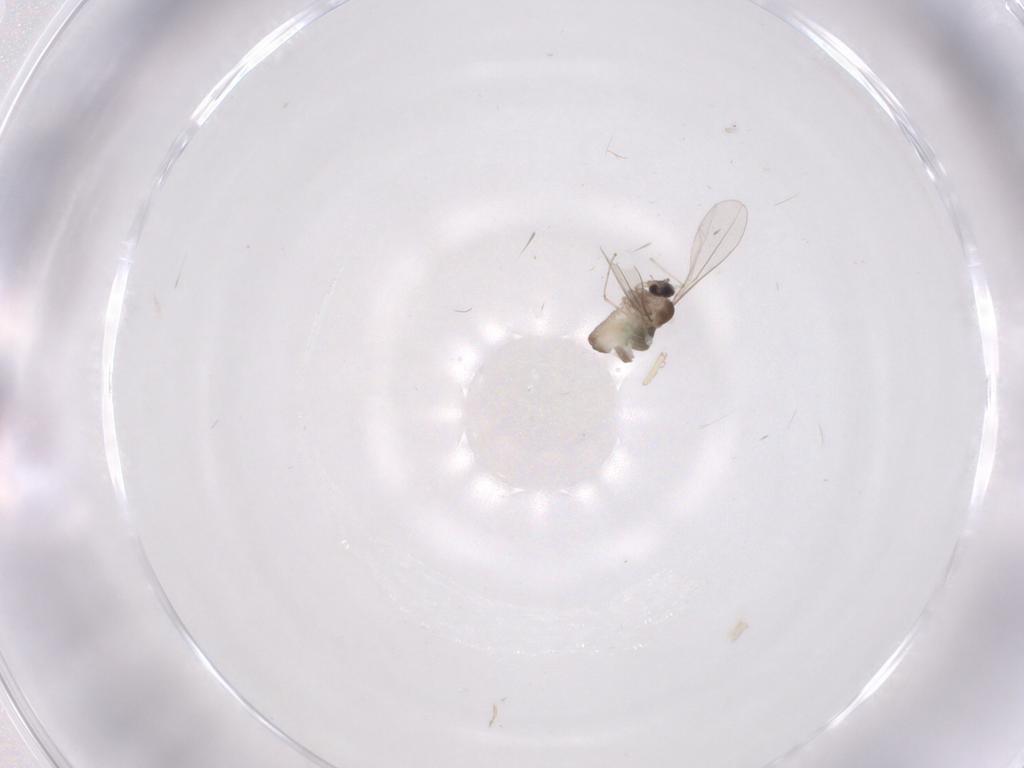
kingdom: Animalia
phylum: Arthropoda
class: Insecta
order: Diptera
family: Cecidomyiidae
